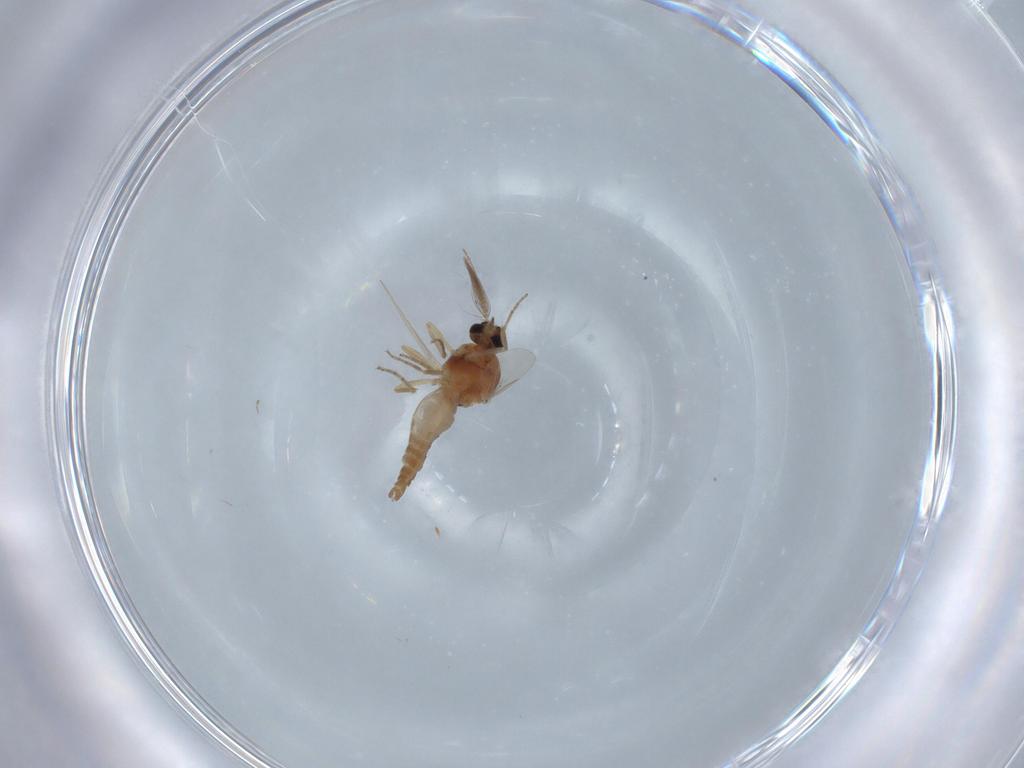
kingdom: Animalia
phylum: Arthropoda
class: Insecta
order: Diptera
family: Ceratopogonidae
